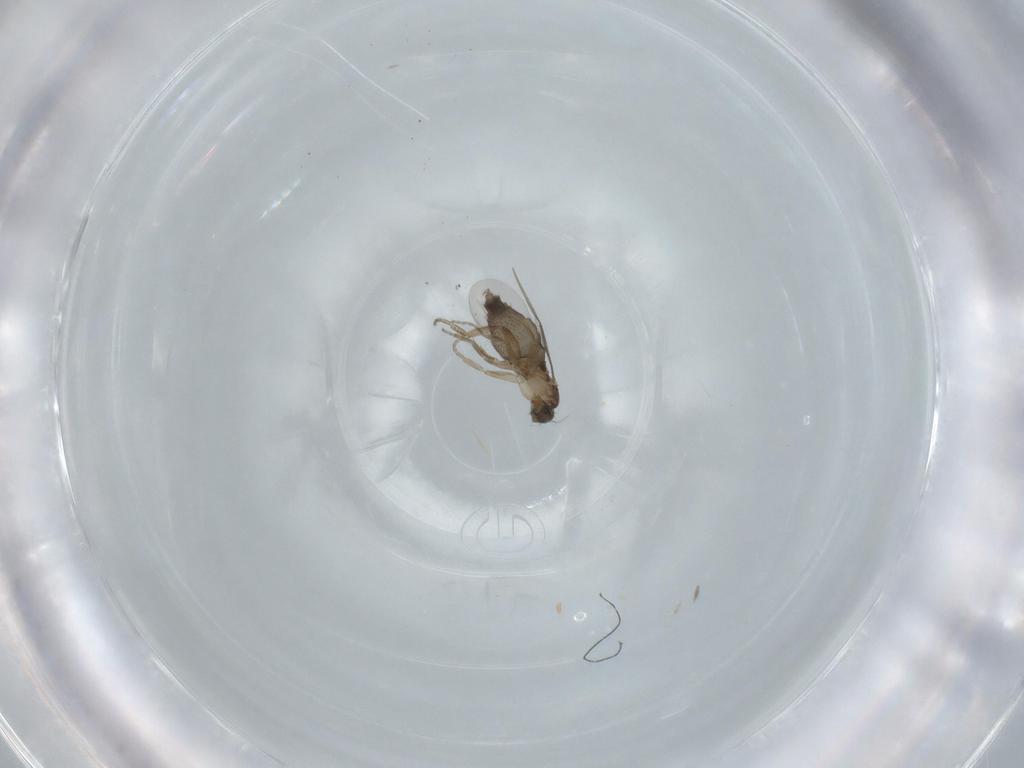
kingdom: Animalia
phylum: Arthropoda
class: Insecta
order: Diptera
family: Phoridae
